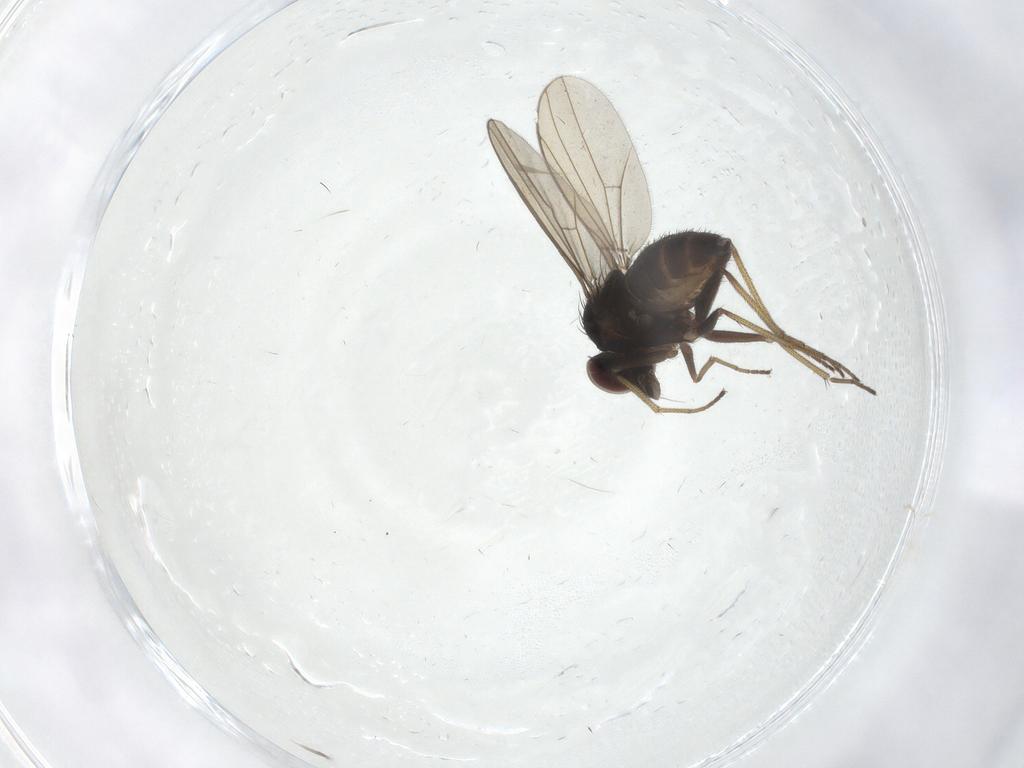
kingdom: Animalia
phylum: Arthropoda
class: Insecta
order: Diptera
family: Dolichopodidae
